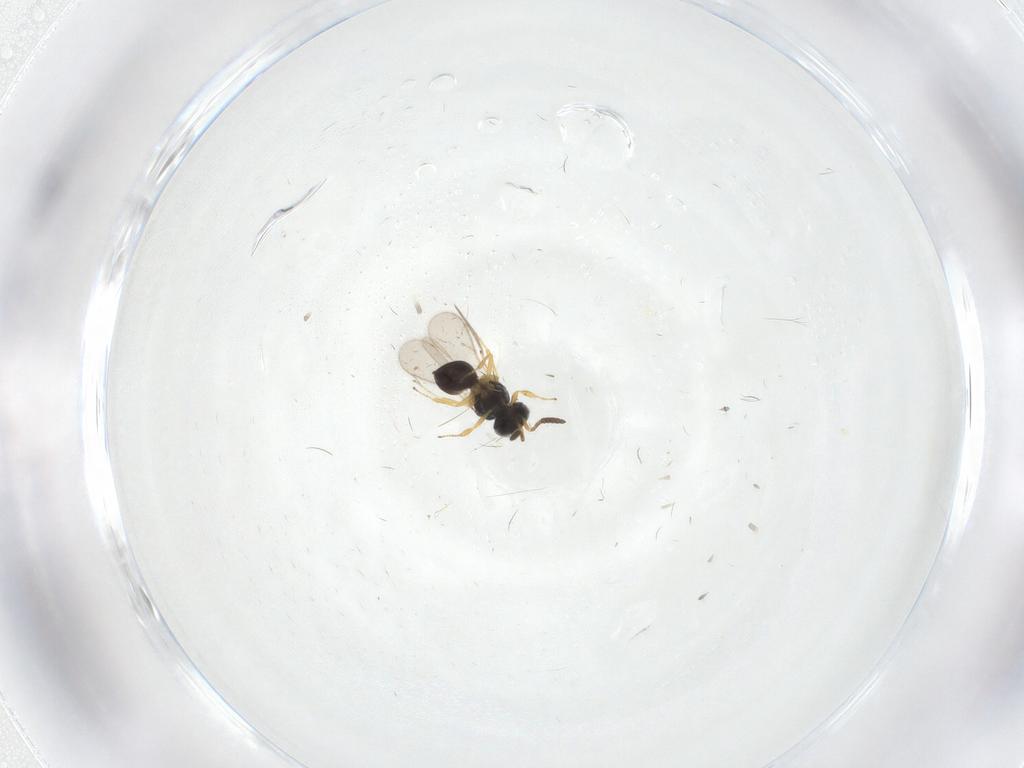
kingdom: Animalia
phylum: Arthropoda
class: Insecta
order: Hymenoptera
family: Scelionidae
